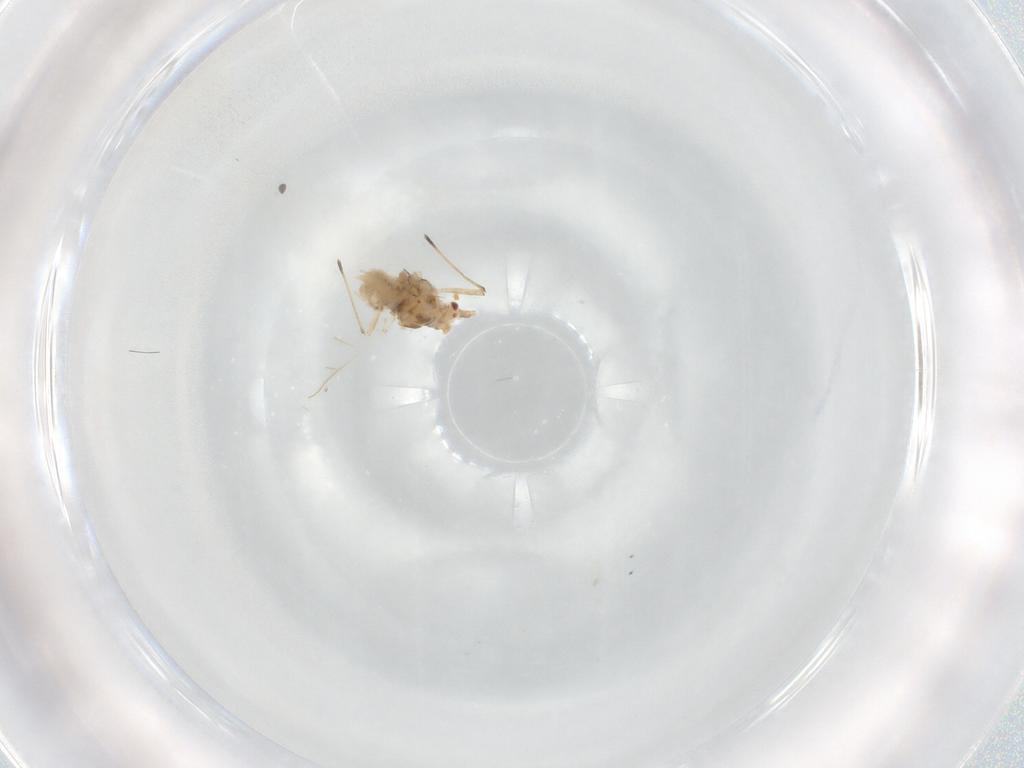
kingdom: Animalia
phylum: Arthropoda
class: Insecta
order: Hemiptera
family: Aphididae
